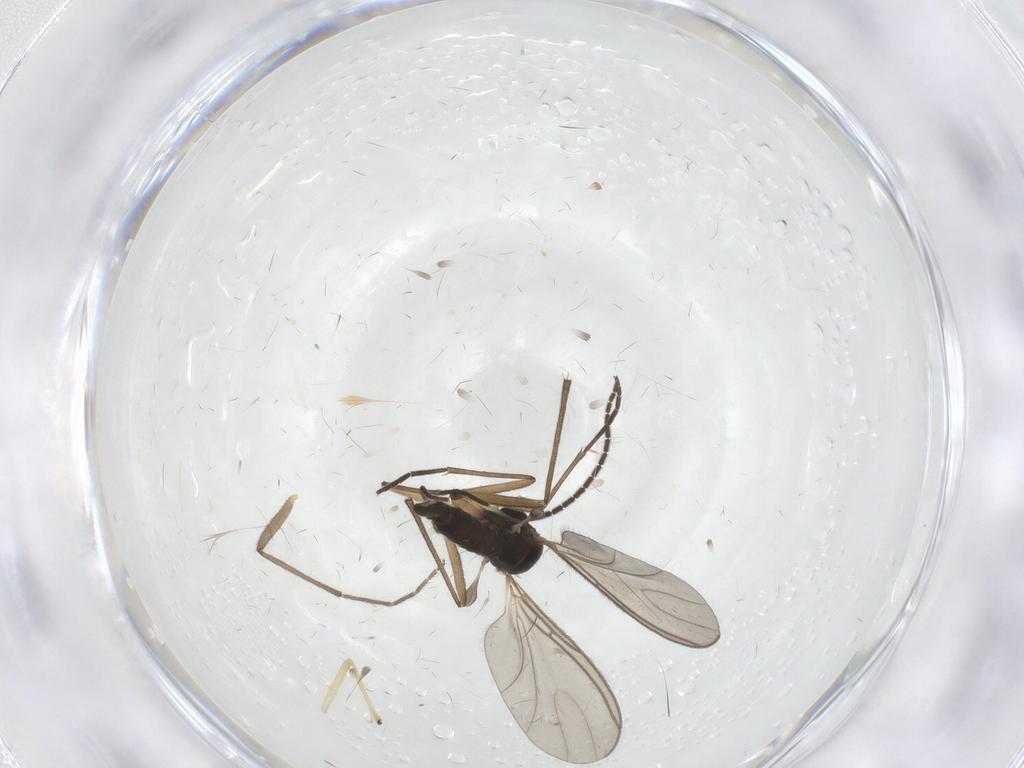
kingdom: Animalia
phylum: Arthropoda
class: Insecta
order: Diptera
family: Sciaridae
